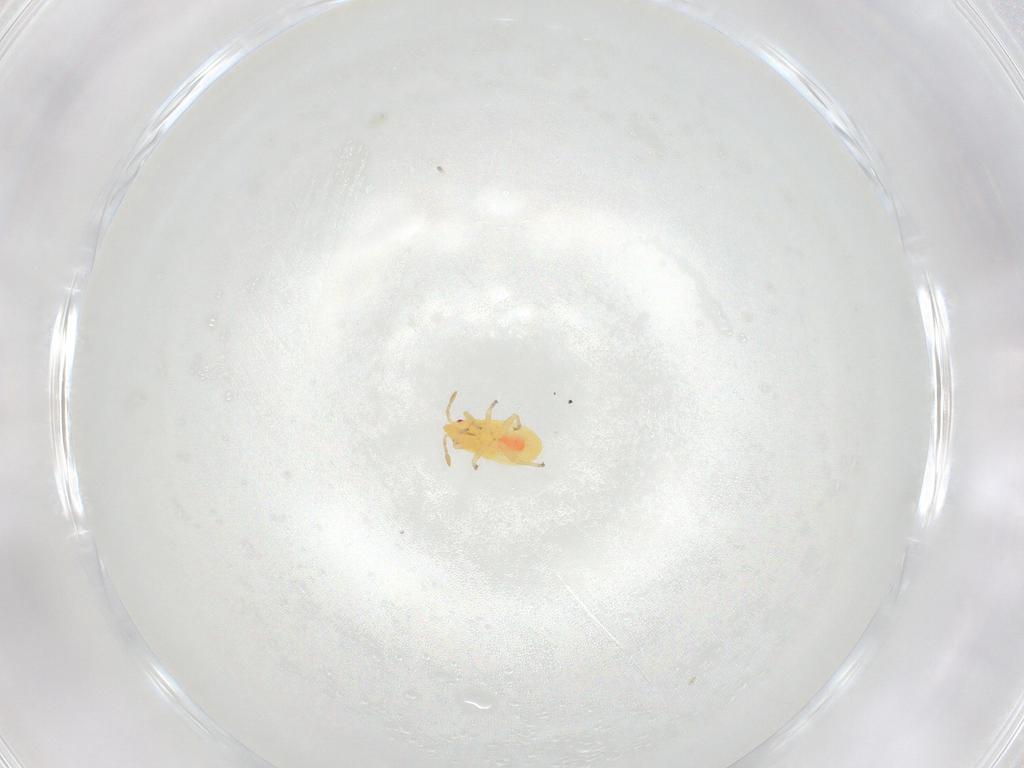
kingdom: Animalia
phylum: Arthropoda
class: Insecta
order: Hemiptera
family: Anthocoridae
